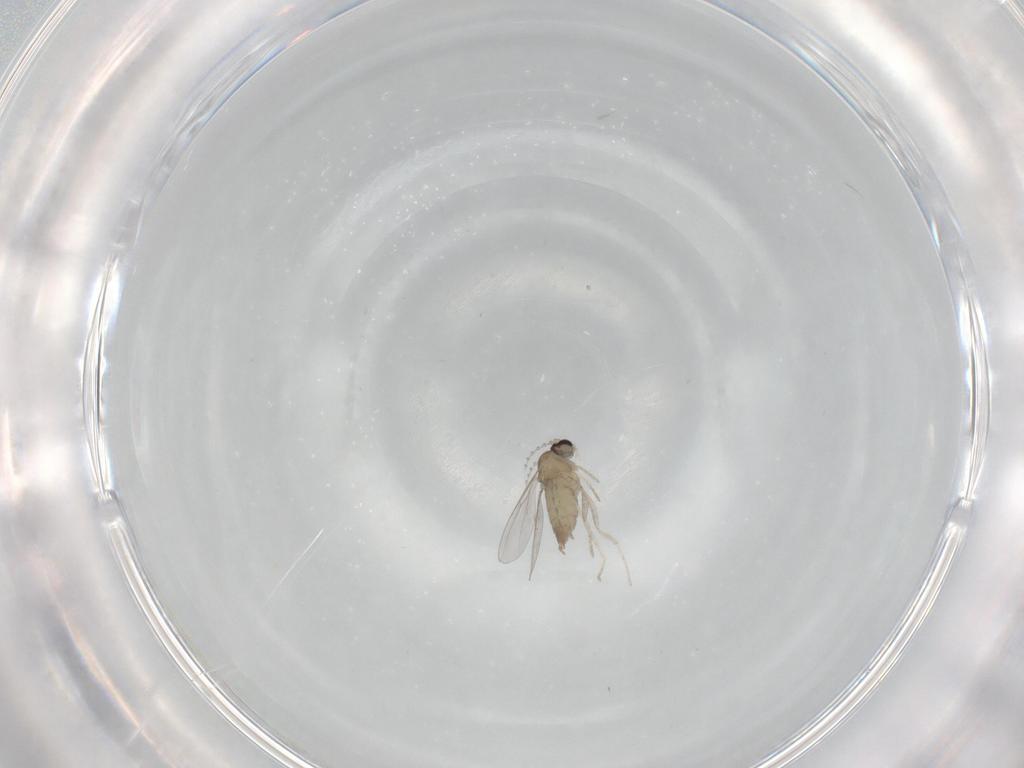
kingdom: Animalia
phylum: Arthropoda
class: Insecta
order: Diptera
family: Cecidomyiidae
